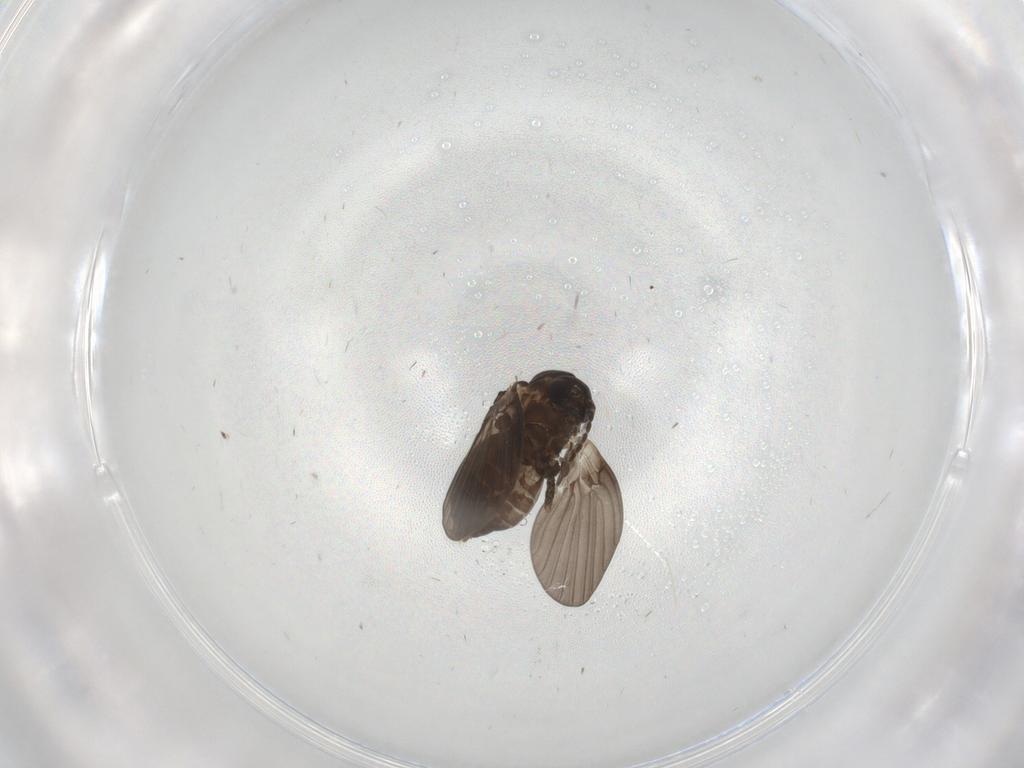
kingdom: Animalia
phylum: Arthropoda
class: Insecta
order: Diptera
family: Psychodidae
